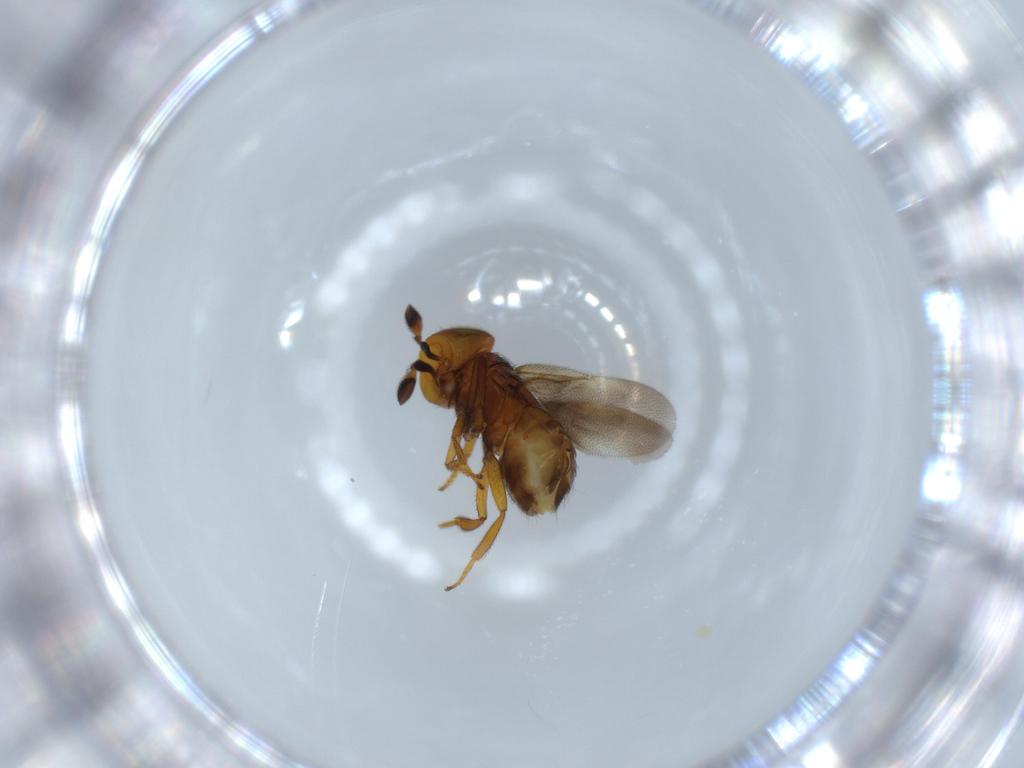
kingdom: Animalia
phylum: Arthropoda
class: Insecta
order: Hymenoptera
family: Encyrtidae
